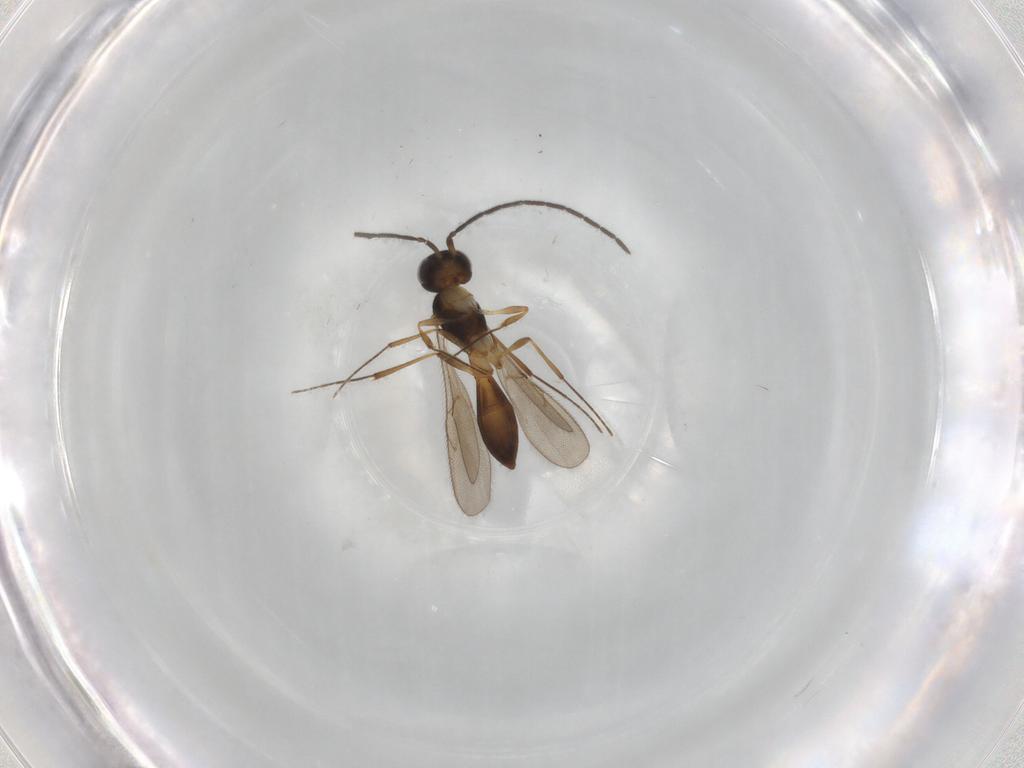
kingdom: Animalia
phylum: Arthropoda
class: Insecta
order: Hymenoptera
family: Scelionidae
